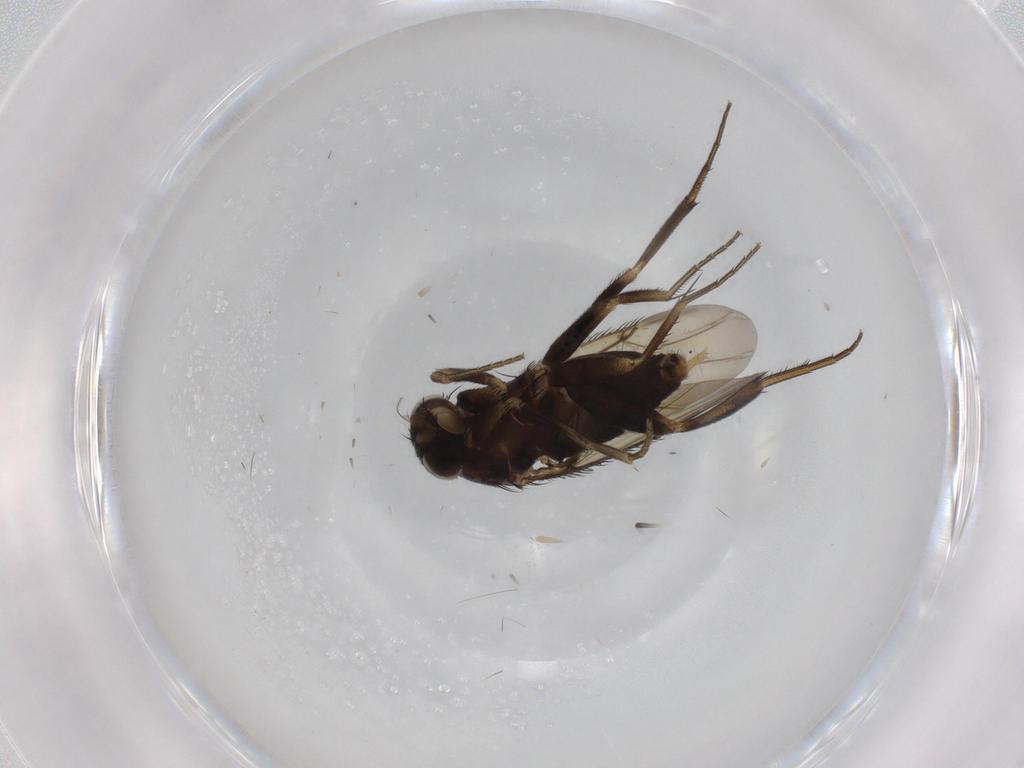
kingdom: Animalia
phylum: Arthropoda
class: Insecta
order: Diptera
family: Phoridae
